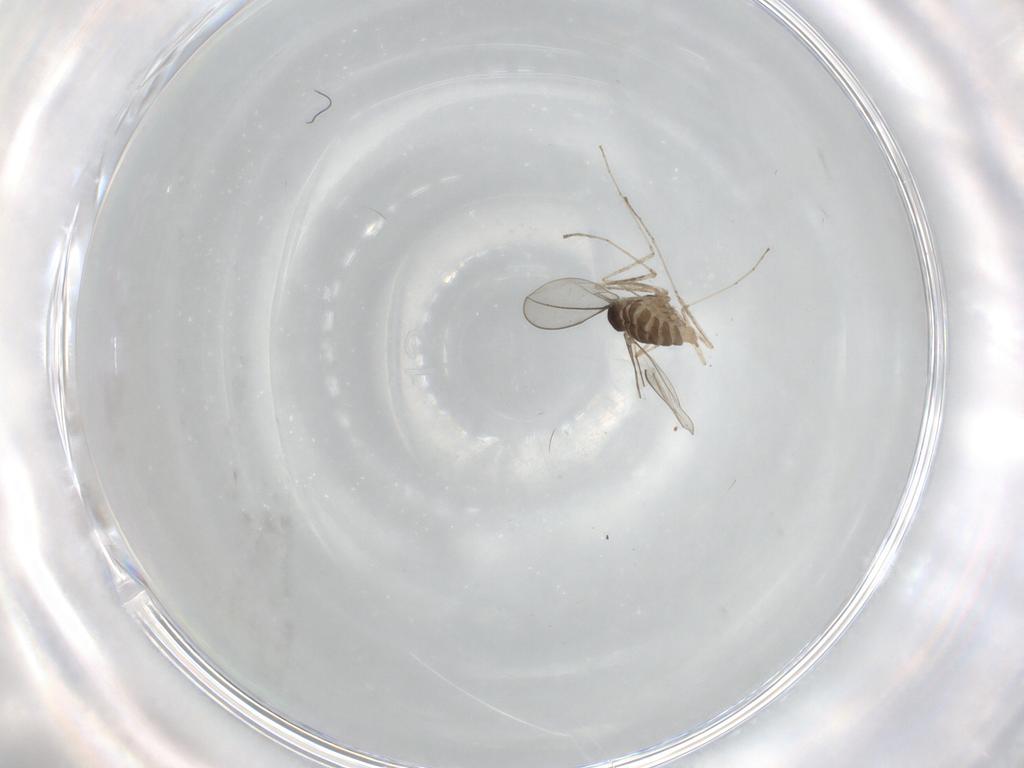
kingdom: Animalia
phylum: Arthropoda
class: Insecta
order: Diptera
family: Cecidomyiidae
